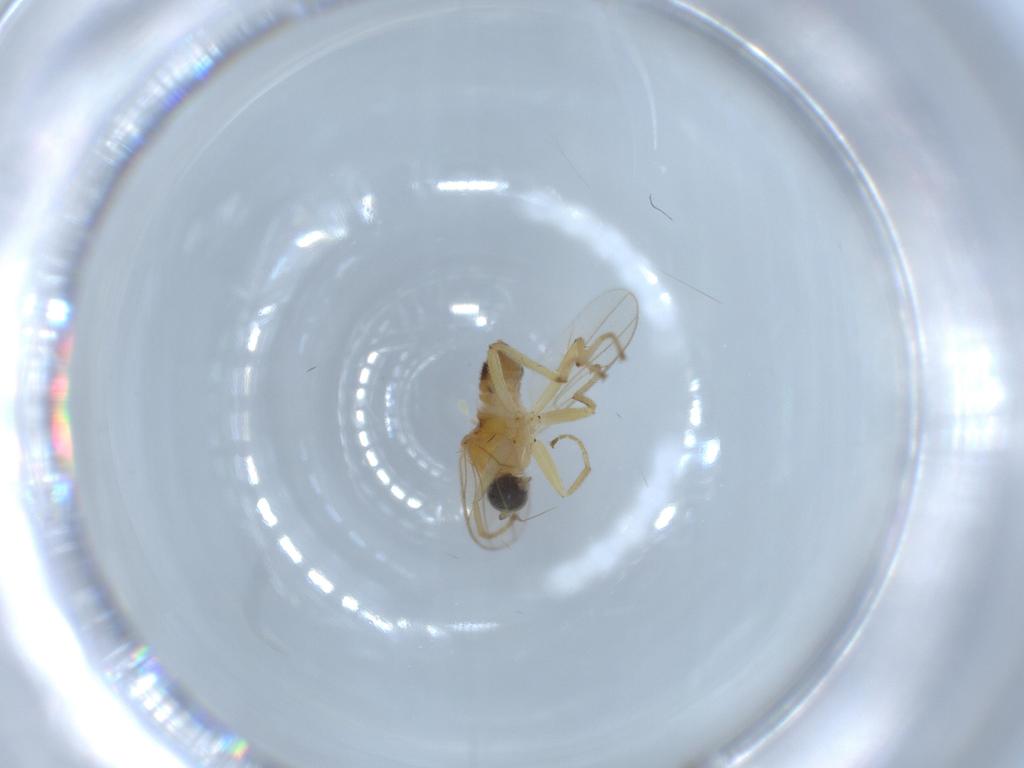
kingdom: Animalia
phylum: Arthropoda
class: Insecta
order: Diptera
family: Hybotidae
